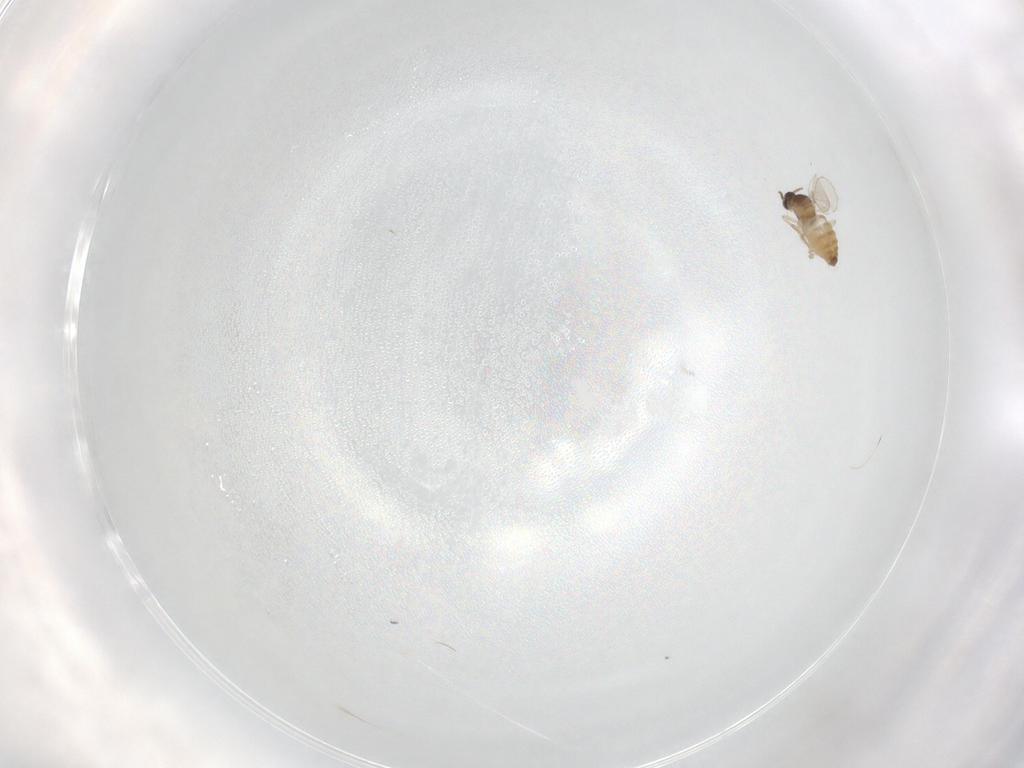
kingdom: Animalia
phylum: Arthropoda
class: Insecta
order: Diptera
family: Cecidomyiidae
